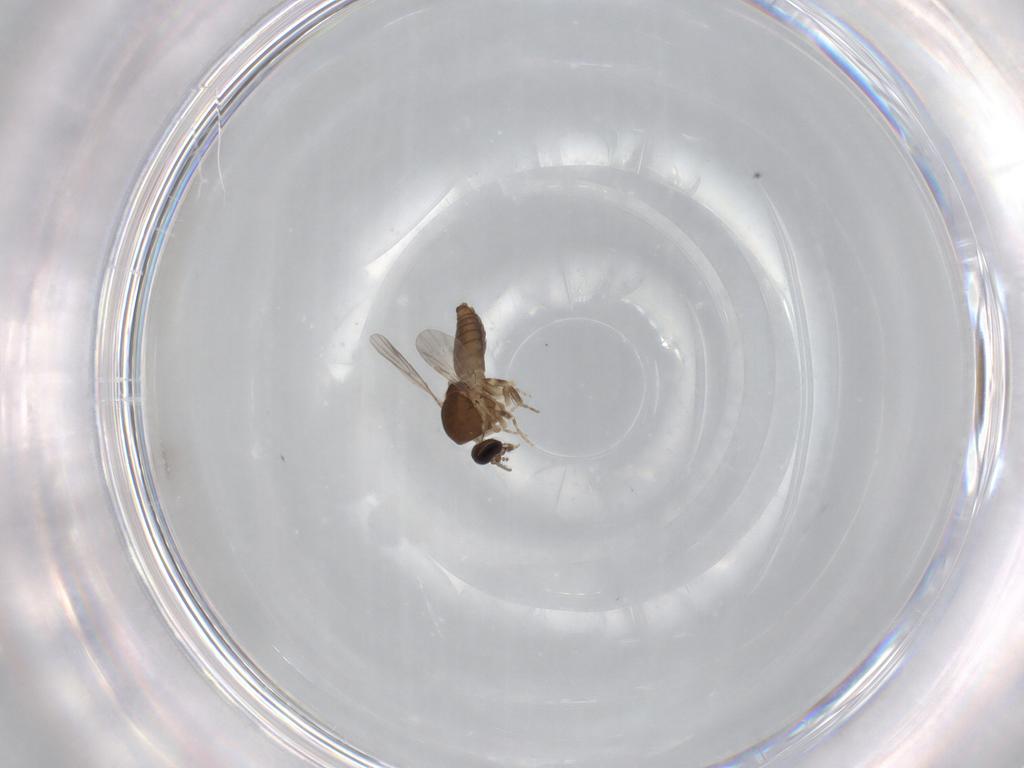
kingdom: Animalia
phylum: Arthropoda
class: Insecta
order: Diptera
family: Ceratopogonidae
